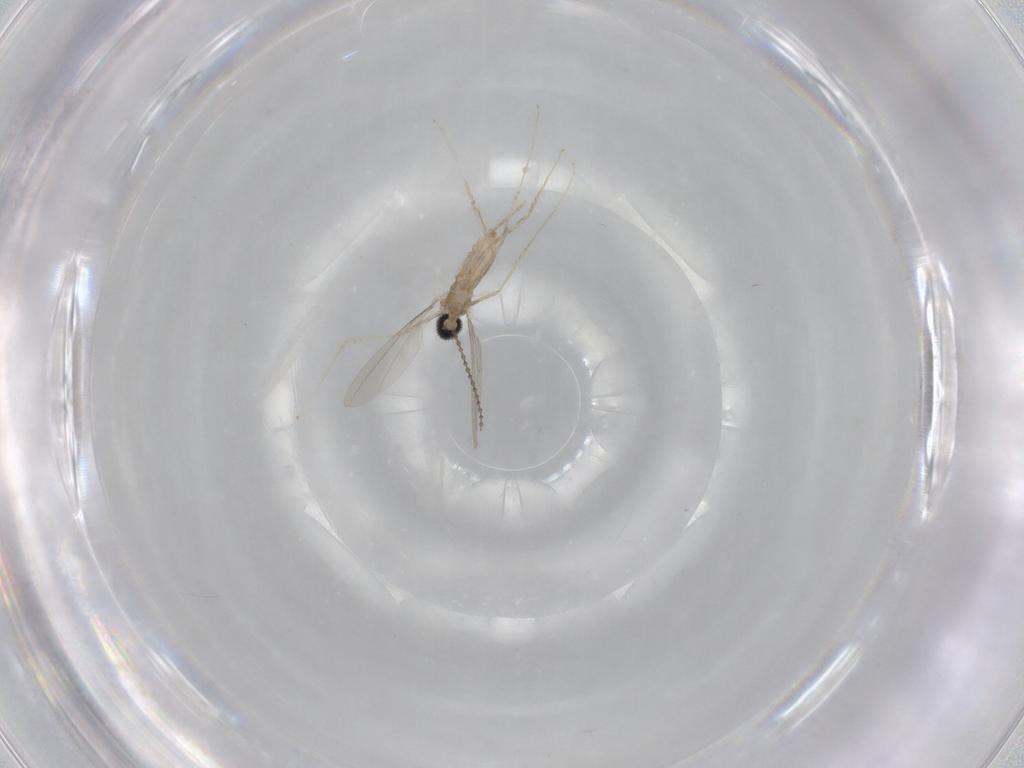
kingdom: Animalia
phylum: Arthropoda
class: Insecta
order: Diptera
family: Cecidomyiidae
